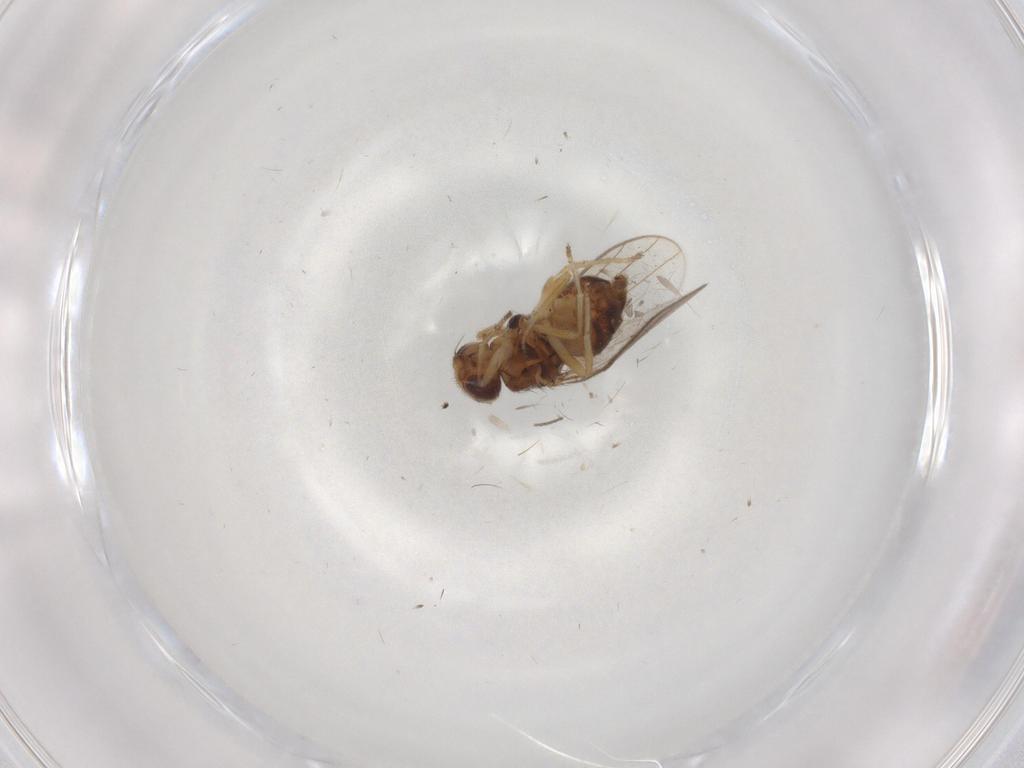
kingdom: Animalia
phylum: Arthropoda
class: Insecta
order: Diptera
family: Chloropidae
